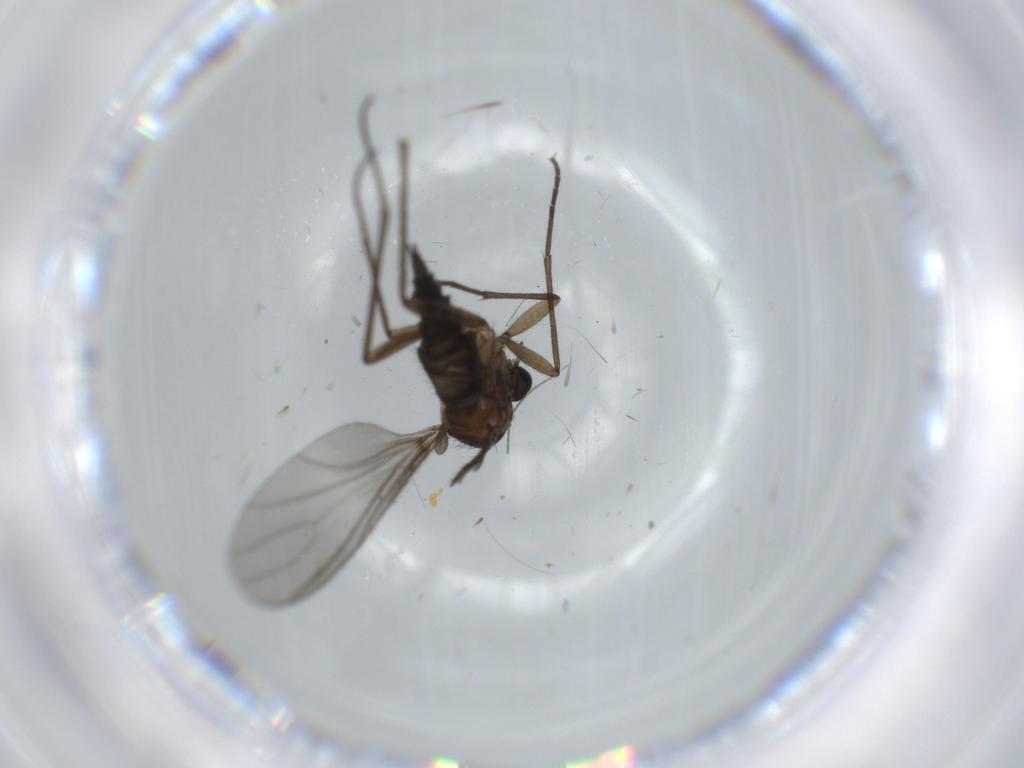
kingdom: Animalia
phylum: Arthropoda
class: Insecta
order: Diptera
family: Sciaridae
